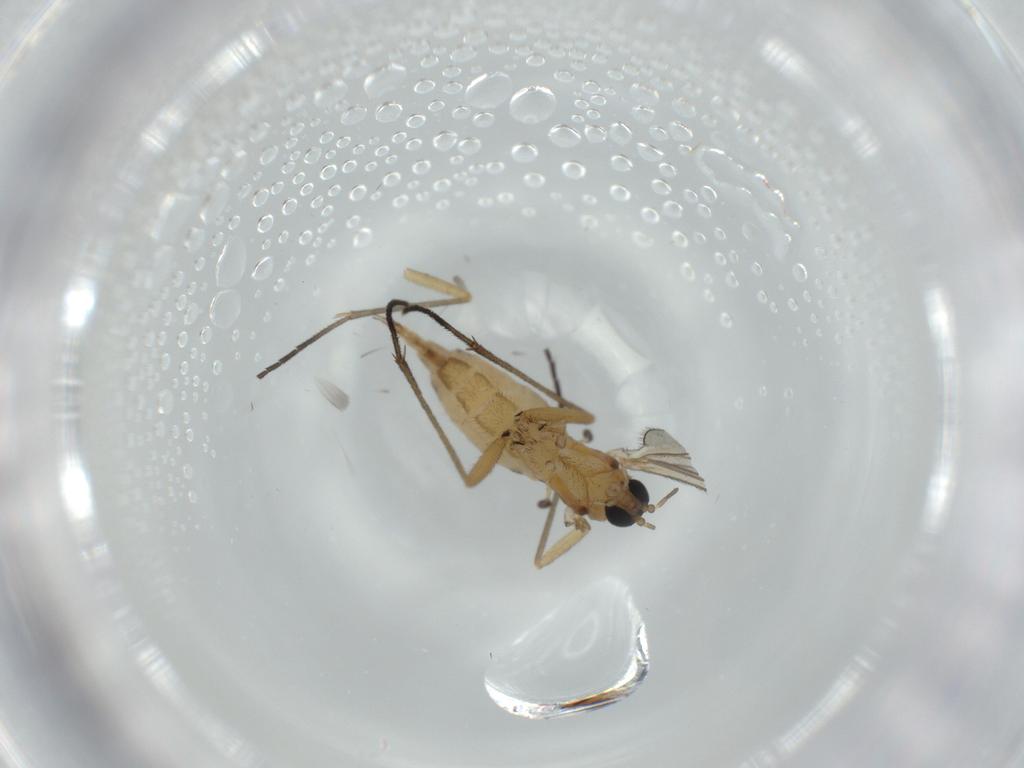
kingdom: Animalia
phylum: Arthropoda
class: Insecta
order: Diptera
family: Sciaridae
